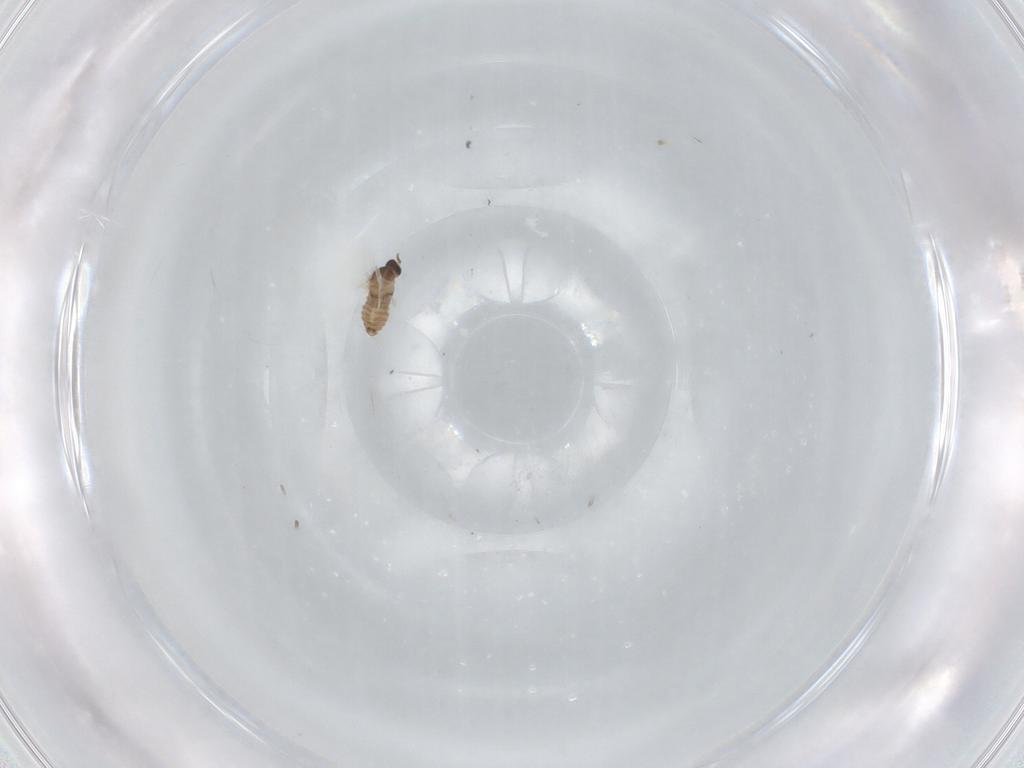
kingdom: Animalia
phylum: Arthropoda
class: Insecta
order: Diptera
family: Cecidomyiidae
